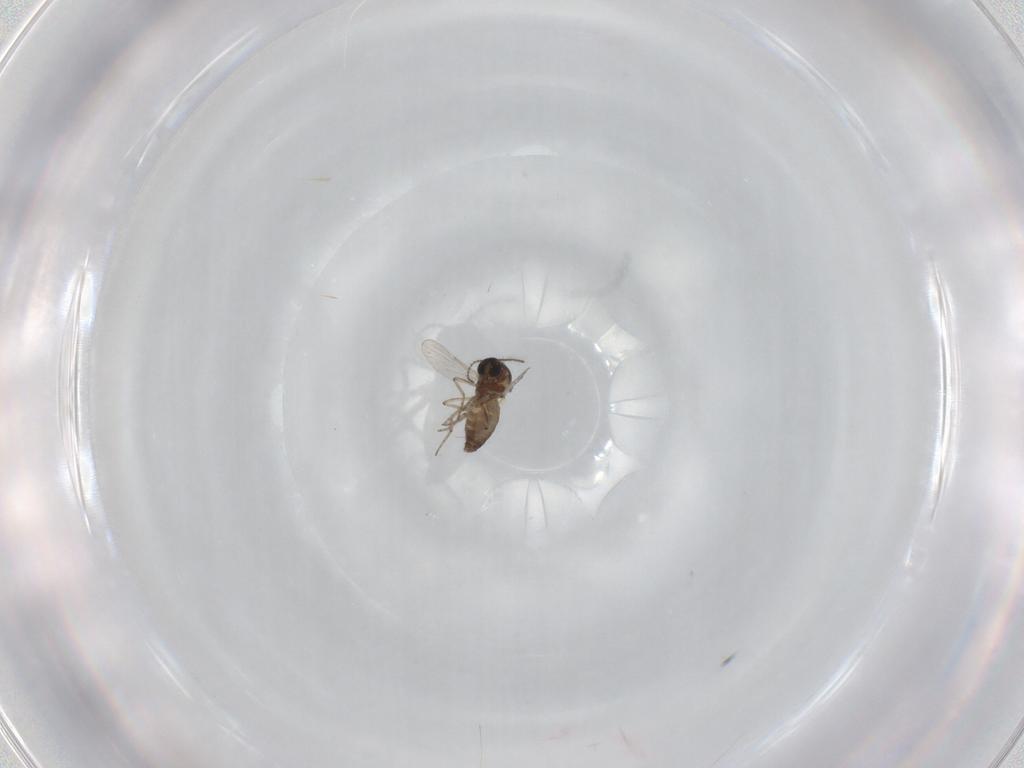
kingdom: Animalia
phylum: Arthropoda
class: Insecta
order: Diptera
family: Ceratopogonidae
